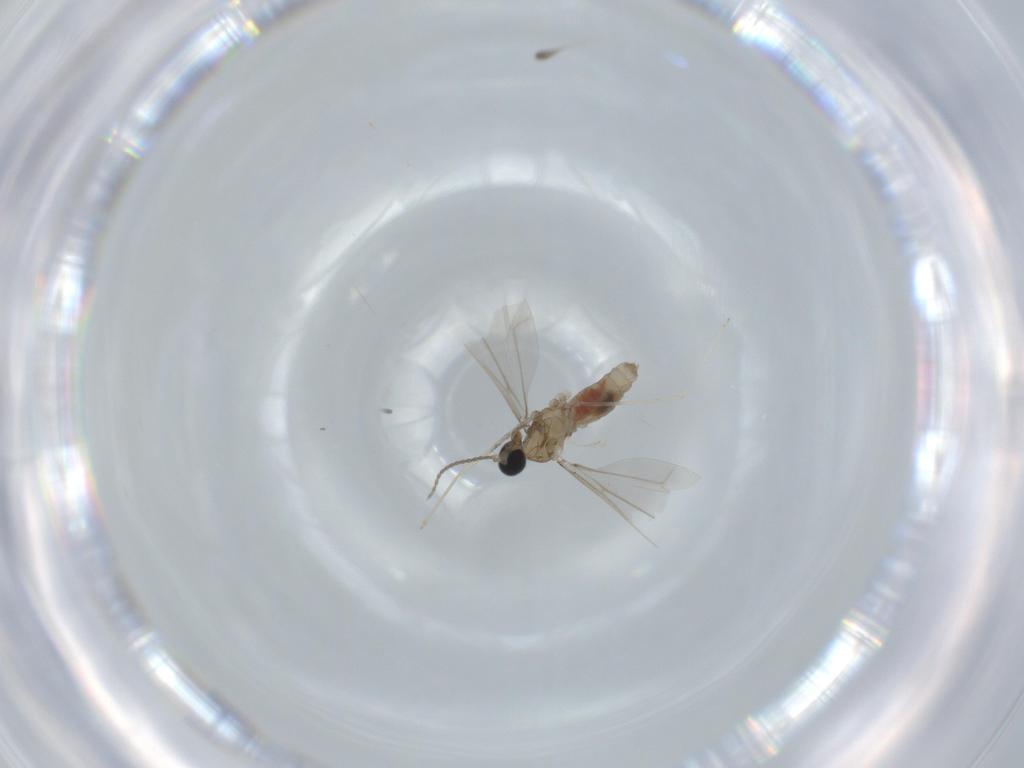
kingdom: Animalia
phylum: Arthropoda
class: Insecta
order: Diptera
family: Cecidomyiidae
